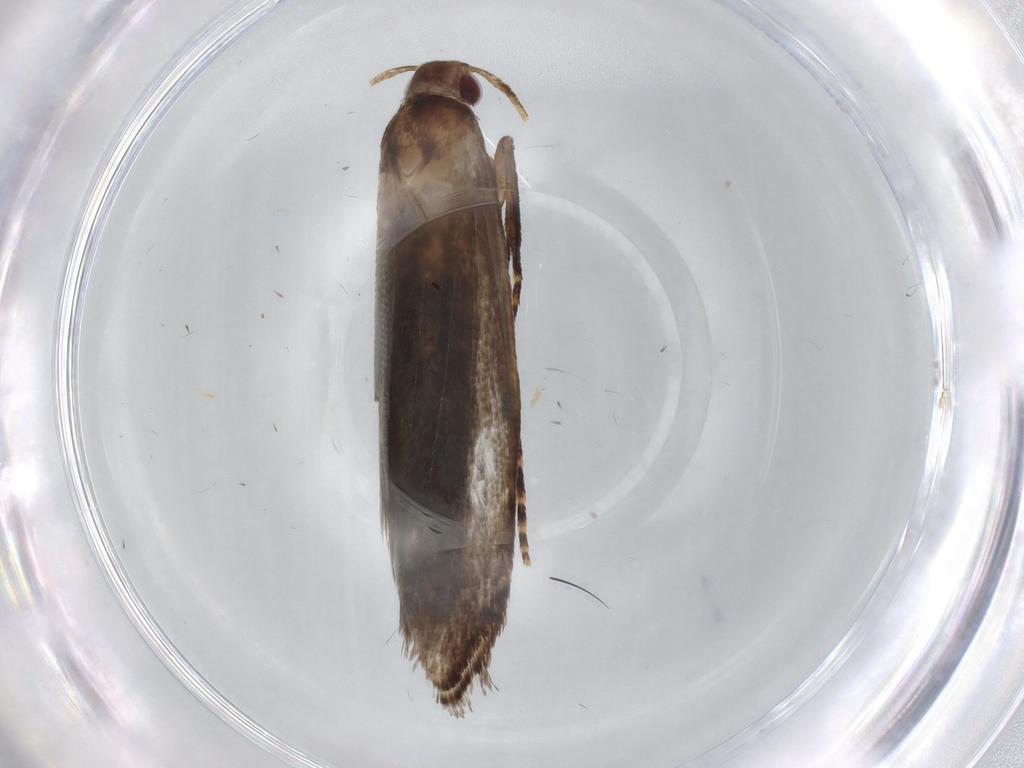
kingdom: Animalia
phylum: Arthropoda
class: Insecta
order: Lepidoptera
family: Gelechiidae
